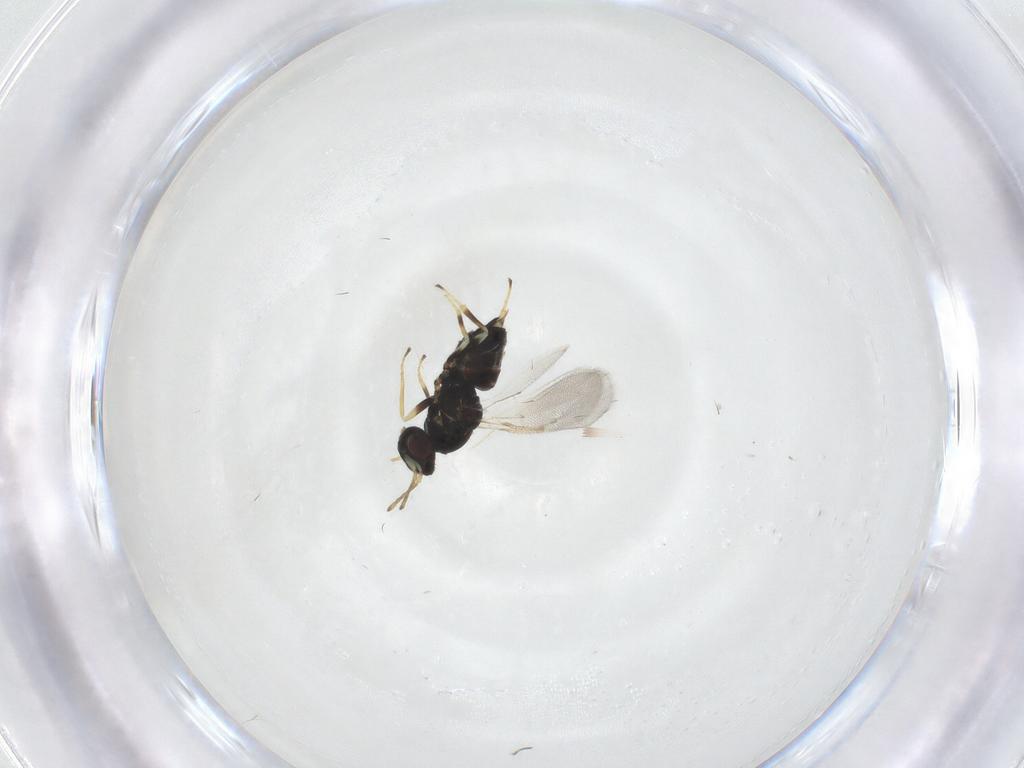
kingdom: Animalia
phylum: Arthropoda
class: Insecta
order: Hymenoptera
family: Eulophidae
